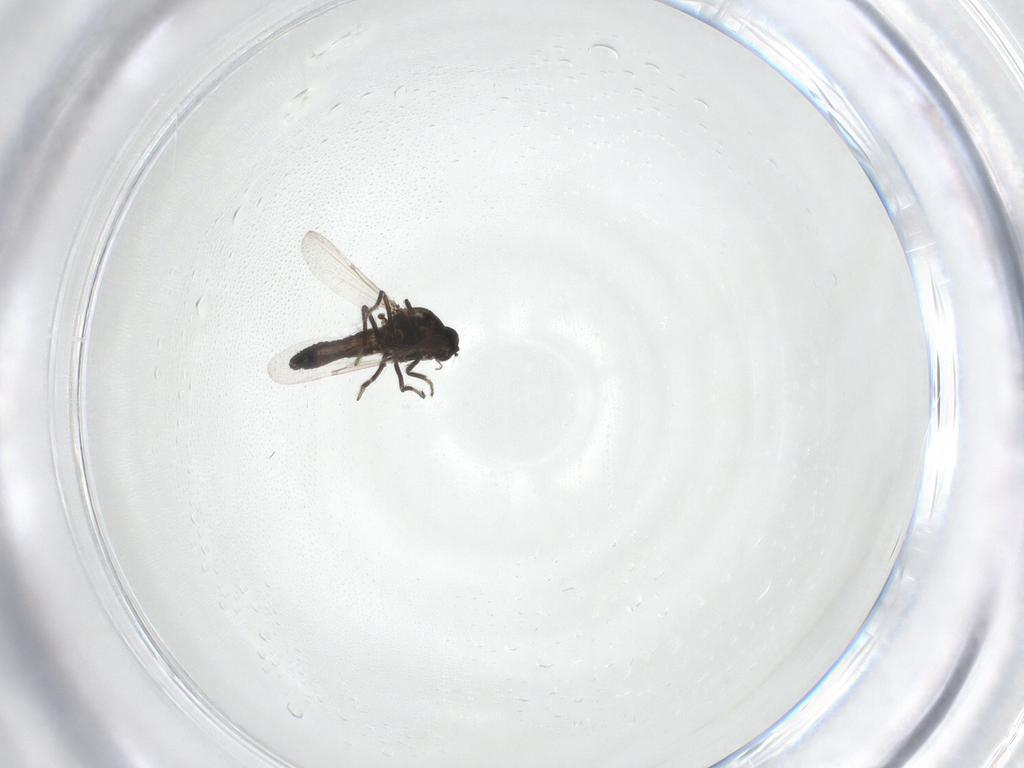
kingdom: Animalia
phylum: Arthropoda
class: Insecta
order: Diptera
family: Ceratopogonidae
